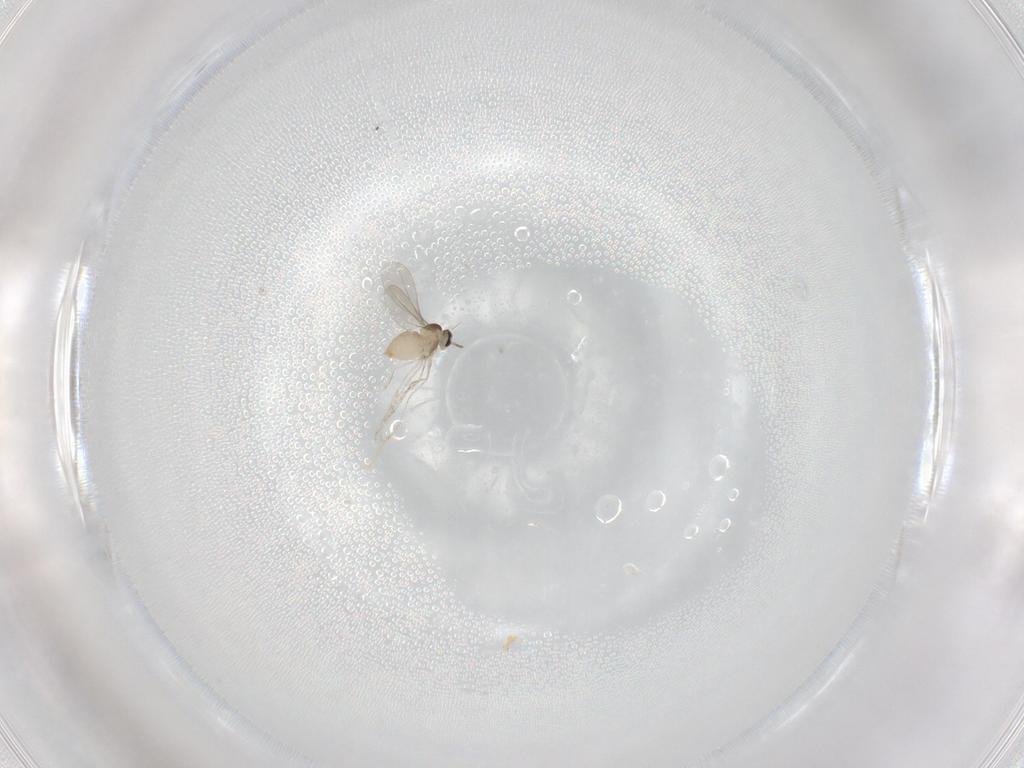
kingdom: Animalia
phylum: Arthropoda
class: Insecta
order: Diptera
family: Cecidomyiidae
